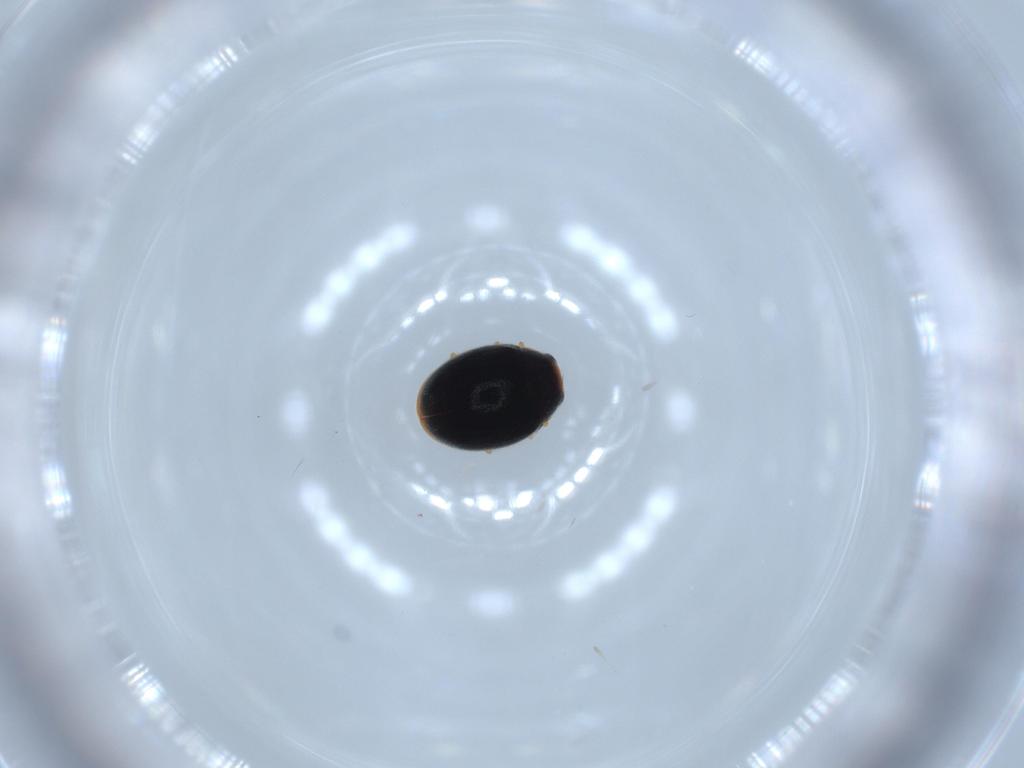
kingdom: Animalia
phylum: Arthropoda
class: Insecta
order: Coleoptera
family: Coccinellidae
